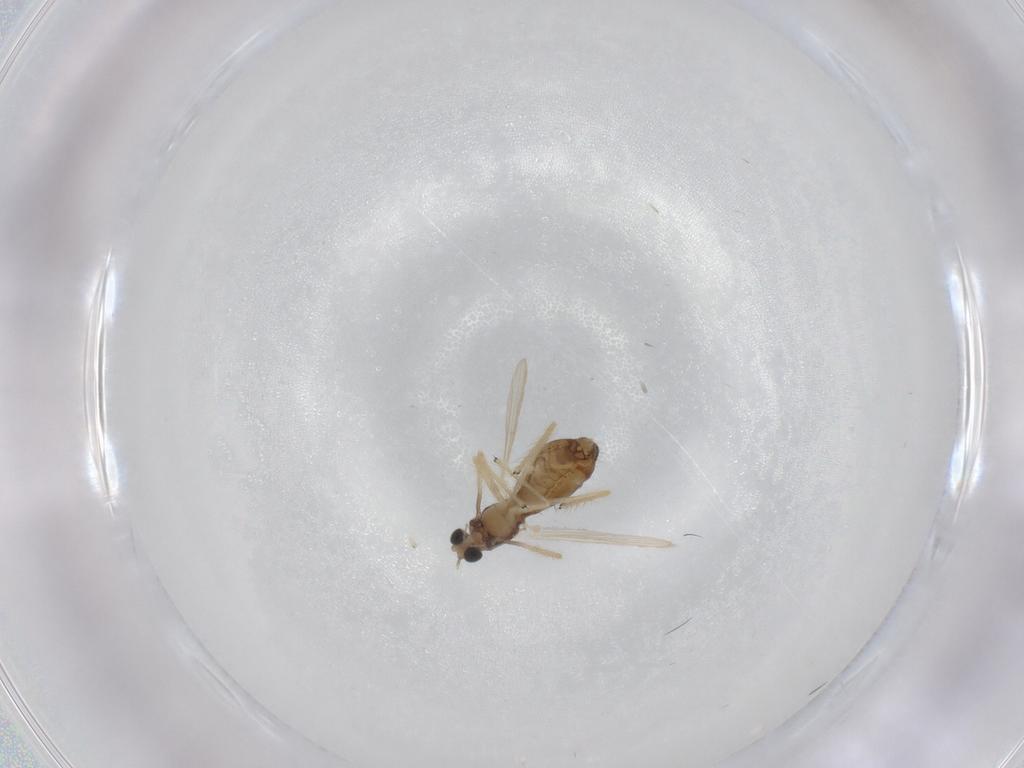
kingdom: Animalia
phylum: Arthropoda
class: Insecta
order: Diptera
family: Chironomidae
